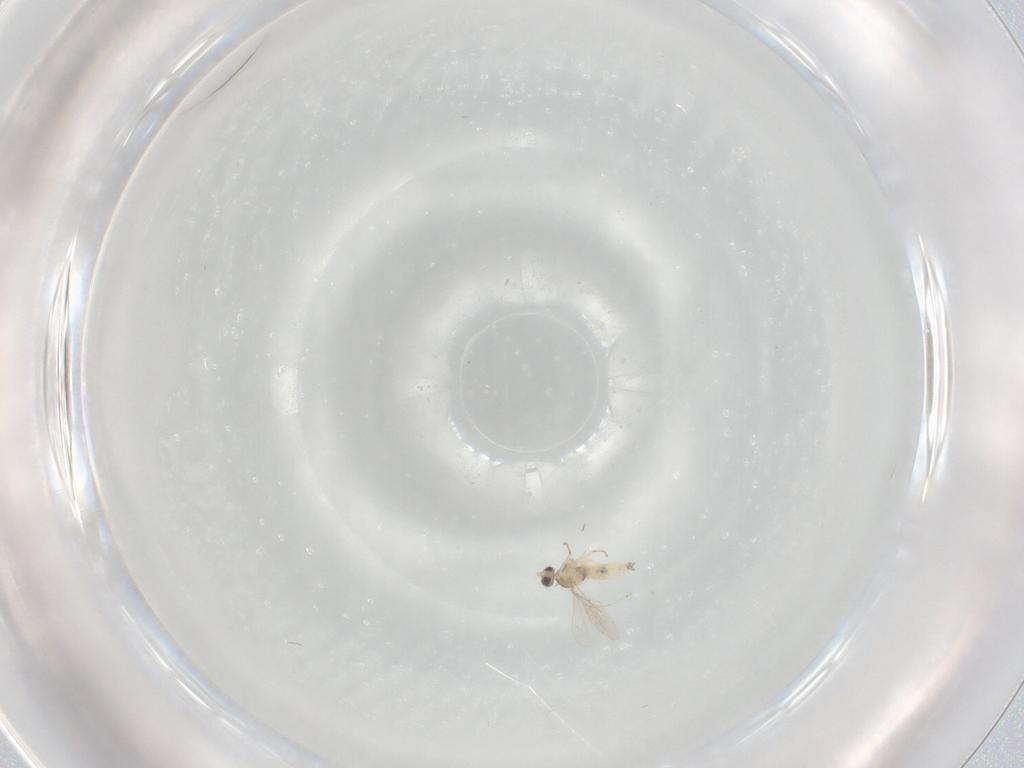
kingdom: Animalia
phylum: Arthropoda
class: Insecta
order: Diptera
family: Cecidomyiidae
